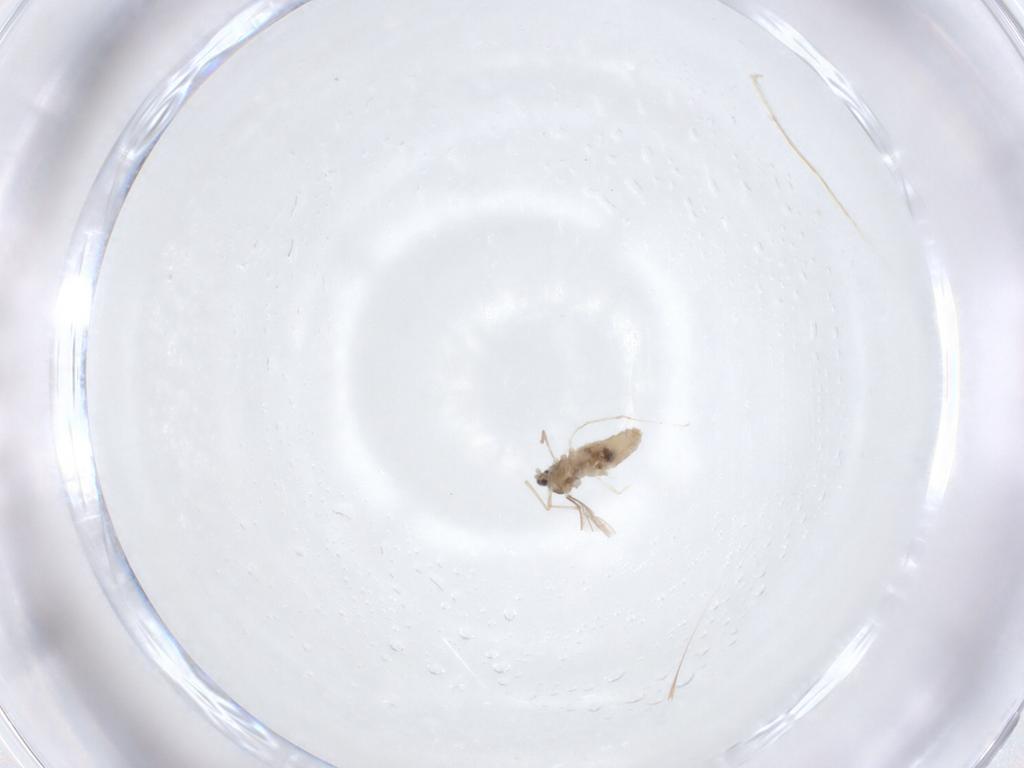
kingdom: Animalia
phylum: Arthropoda
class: Insecta
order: Diptera
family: Cecidomyiidae
